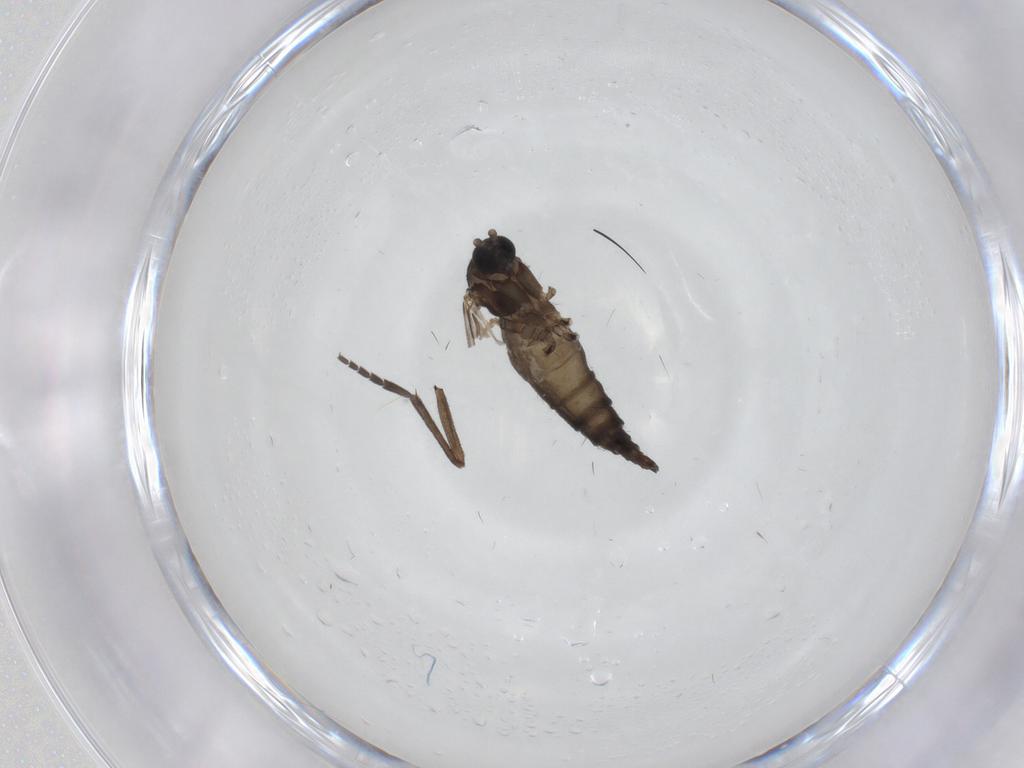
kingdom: Animalia
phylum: Arthropoda
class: Insecta
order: Diptera
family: Sciaridae
